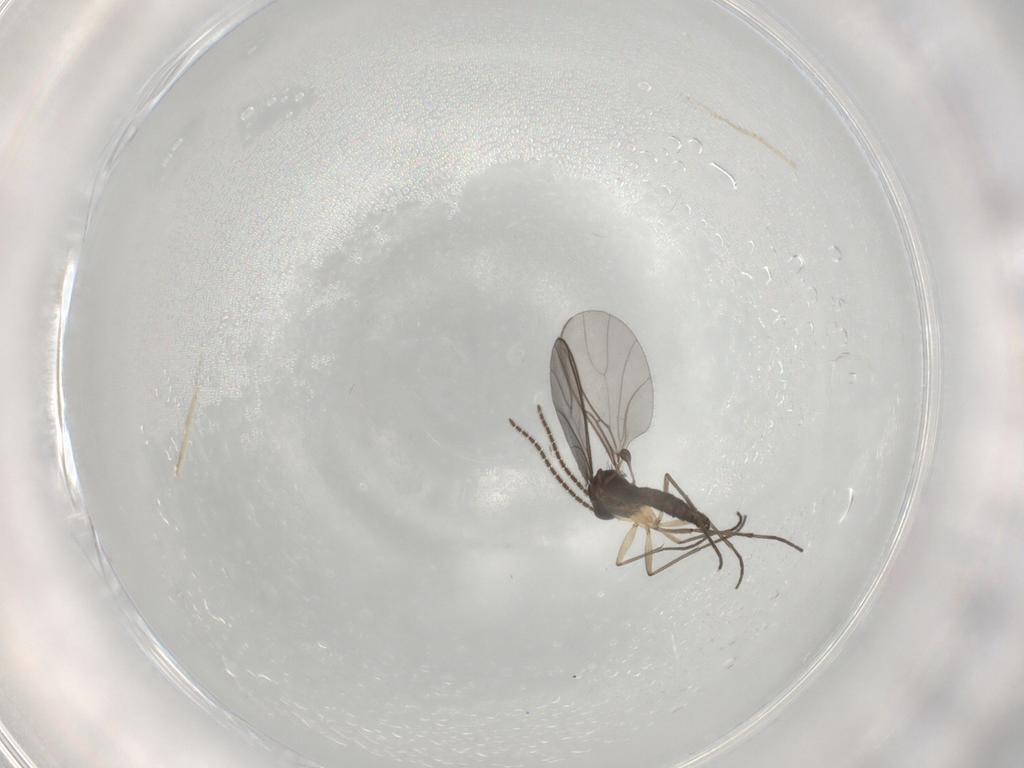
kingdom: Animalia
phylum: Arthropoda
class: Insecta
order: Diptera
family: Sciaridae
